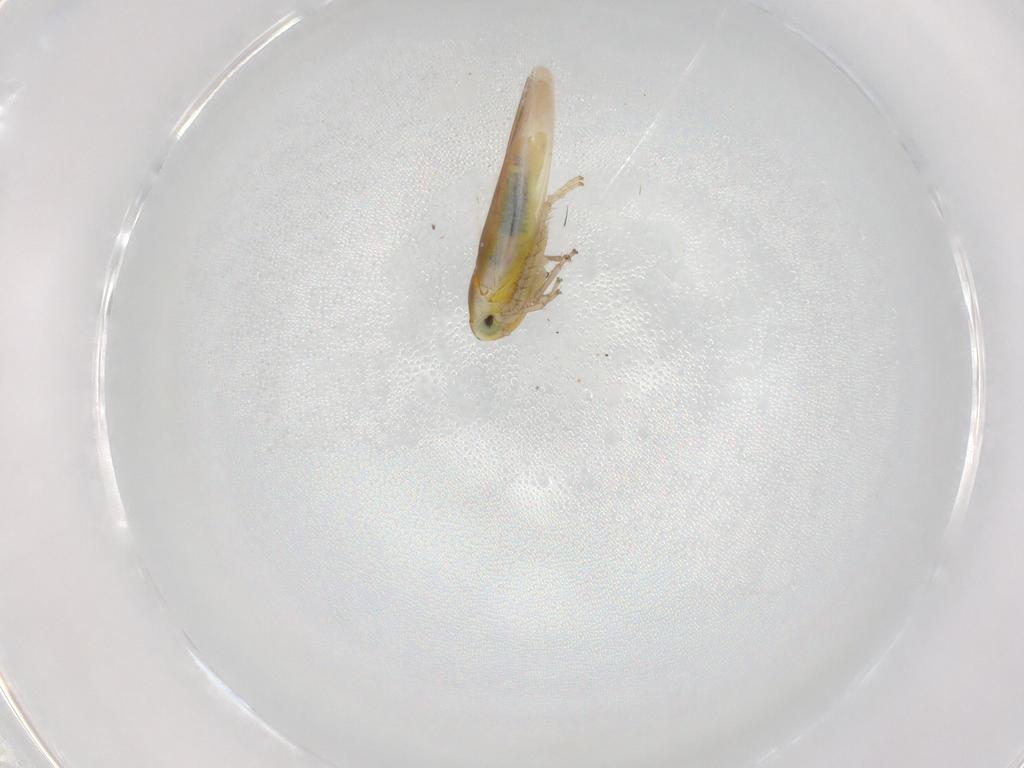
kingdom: Animalia
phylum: Arthropoda
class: Insecta
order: Hemiptera
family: Cicadellidae
